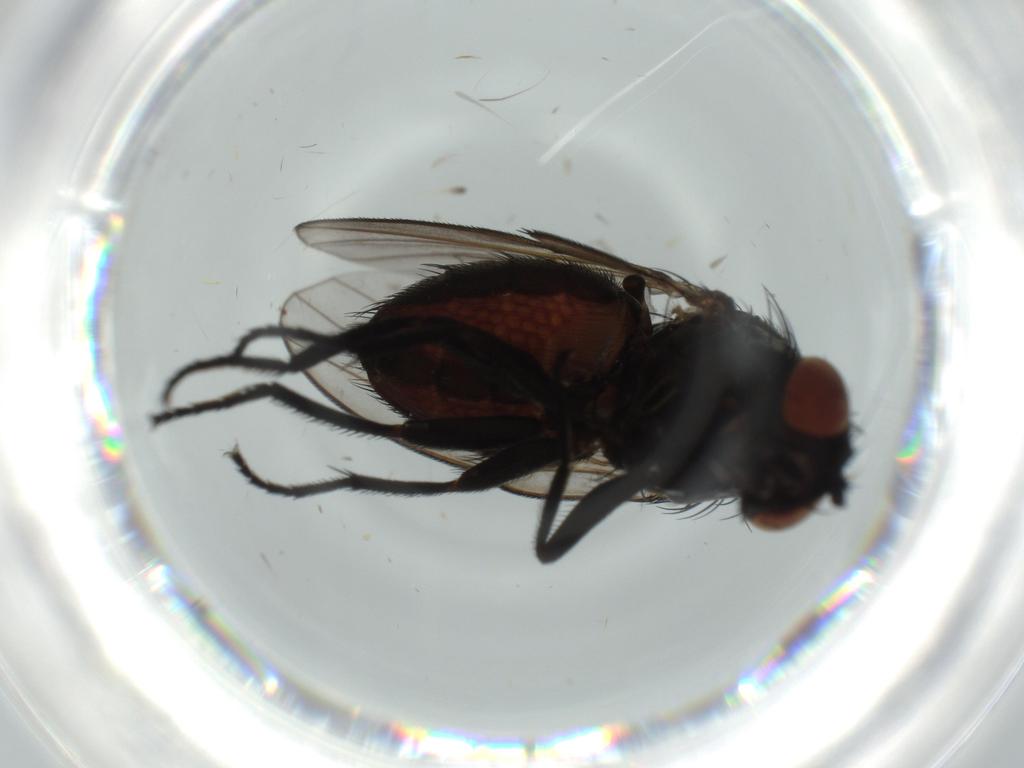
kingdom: Animalia
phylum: Arthropoda
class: Insecta
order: Diptera
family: Milichiidae
